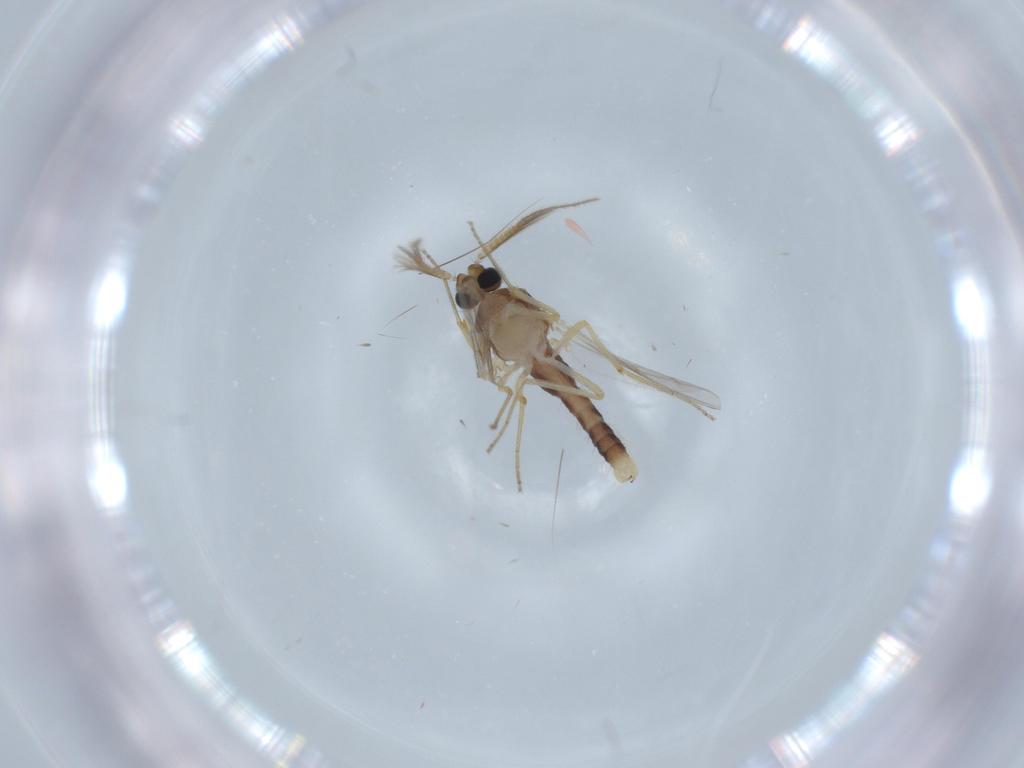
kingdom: Animalia
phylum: Arthropoda
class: Insecta
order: Diptera
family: Ceratopogonidae
